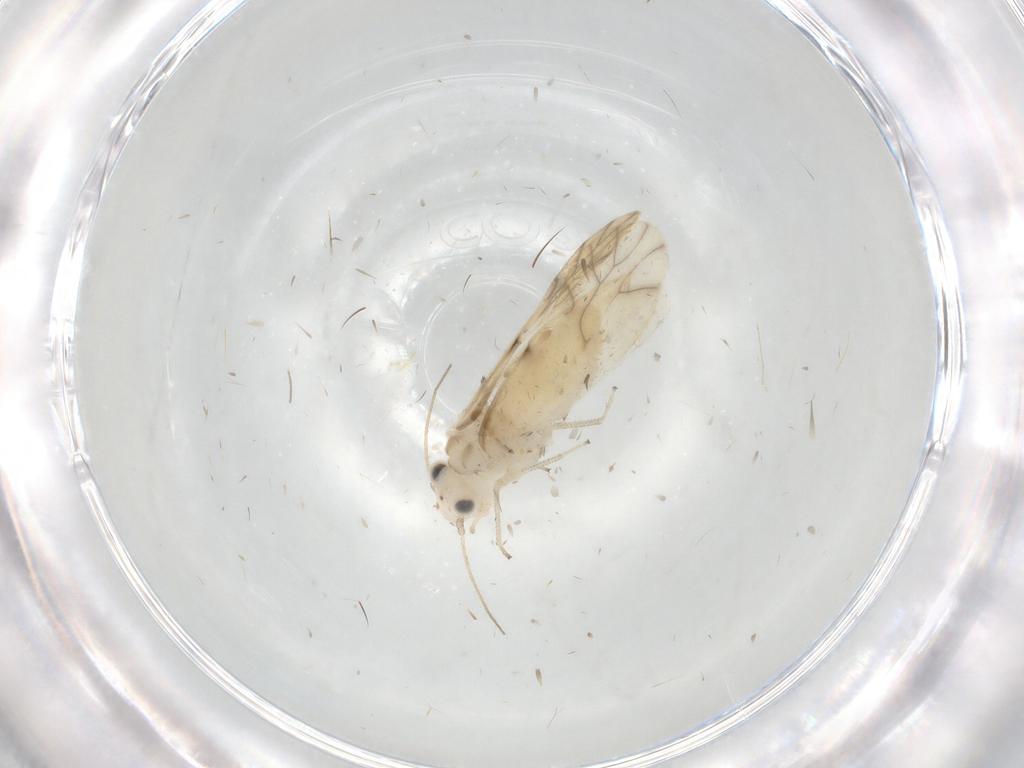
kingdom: Animalia
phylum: Arthropoda
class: Insecta
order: Psocodea
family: Caeciliusidae
